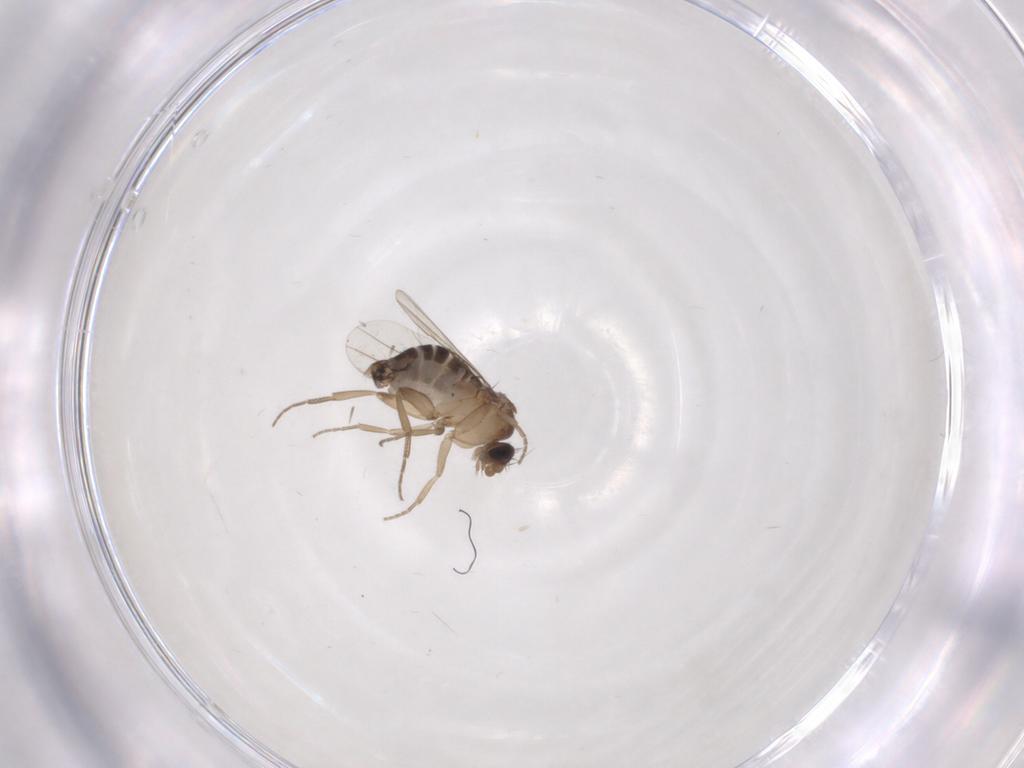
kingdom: Animalia
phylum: Arthropoda
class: Insecta
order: Diptera
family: Phoridae
